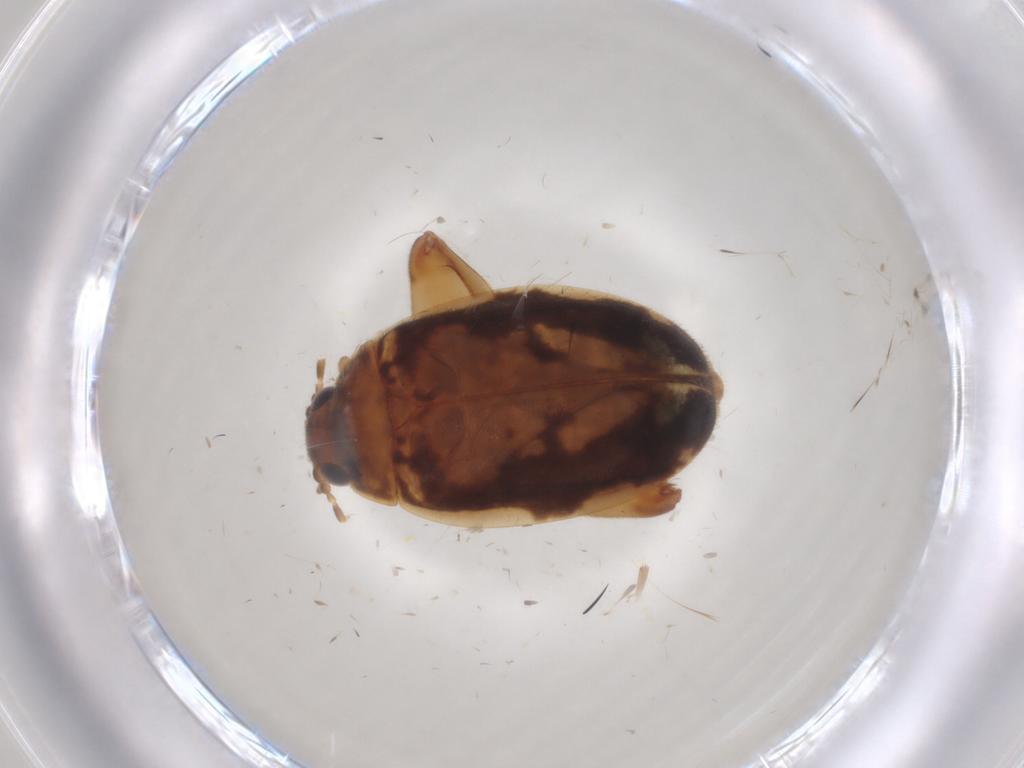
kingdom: Animalia
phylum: Arthropoda
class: Insecta
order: Coleoptera
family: Scirtidae
